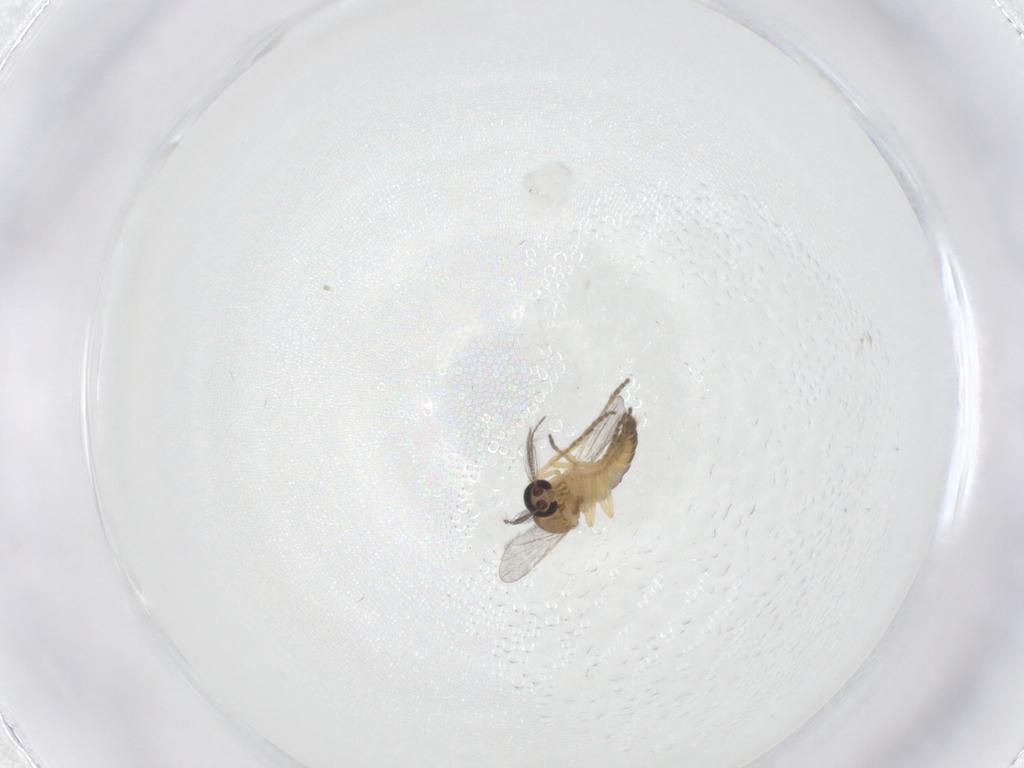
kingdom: Animalia
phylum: Arthropoda
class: Insecta
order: Diptera
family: Ceratopogonidae
